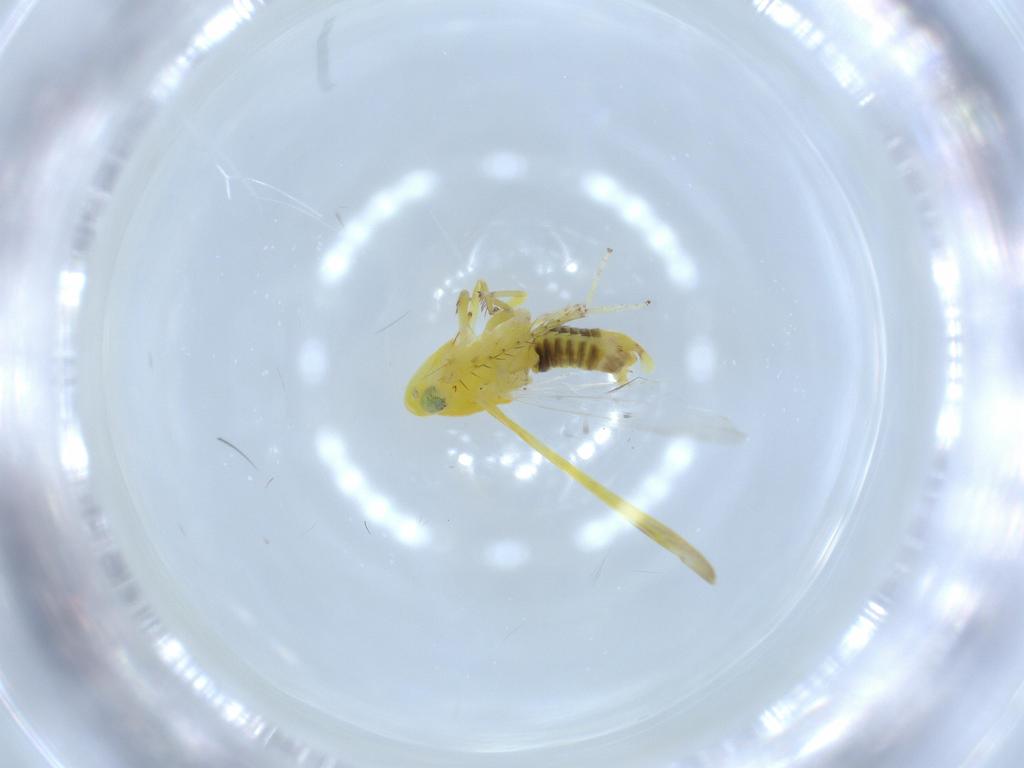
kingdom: Animalia
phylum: Arthropoda
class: Insecta
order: Hemiptera
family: Cicadellidae
